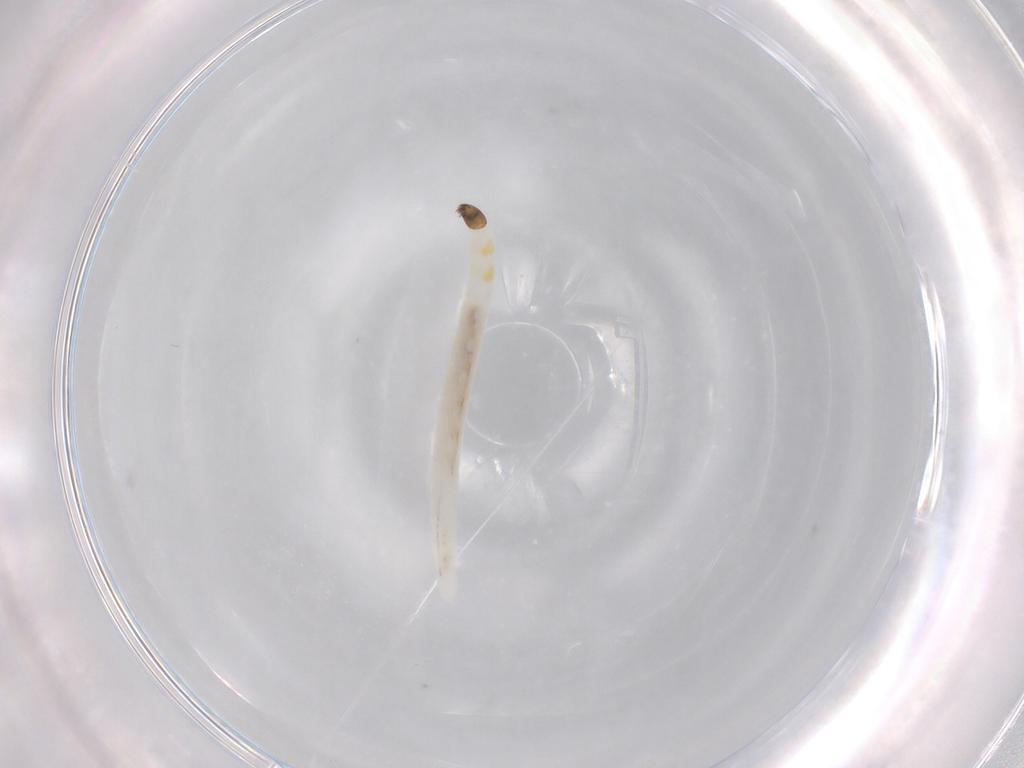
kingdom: Animalia
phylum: Arthropoda
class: Insecta
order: Diptera
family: Ceratopogonidae
